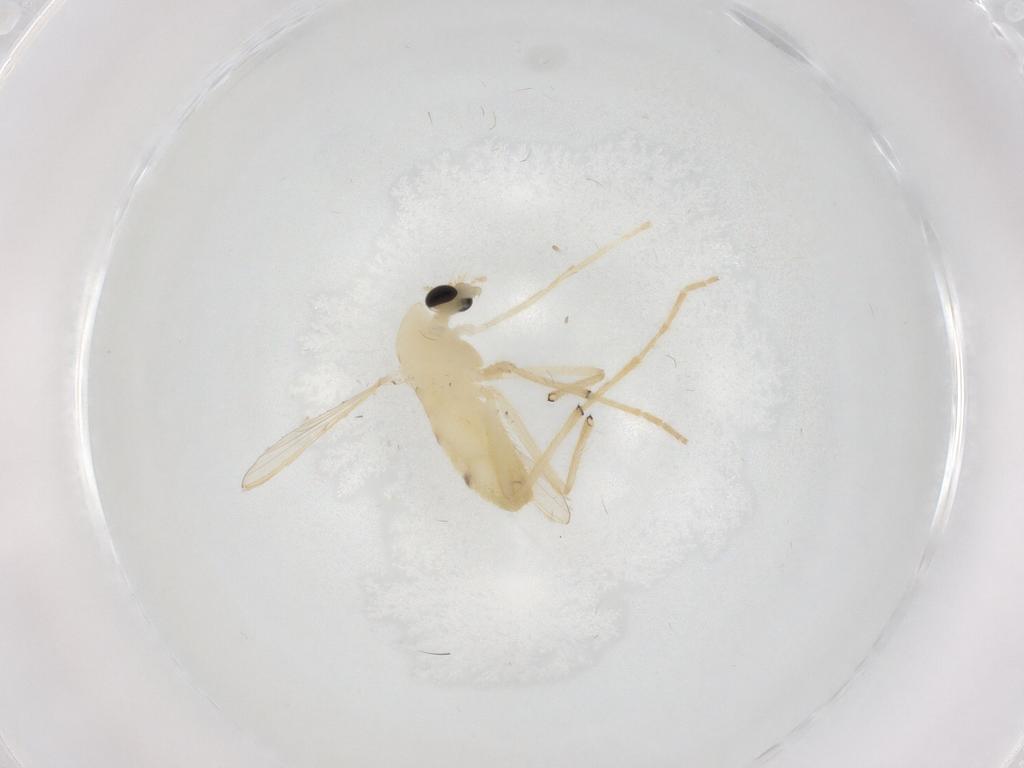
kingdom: Animalia
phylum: Arthropoda
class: Insecta
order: Diptera
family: Chironomidae
